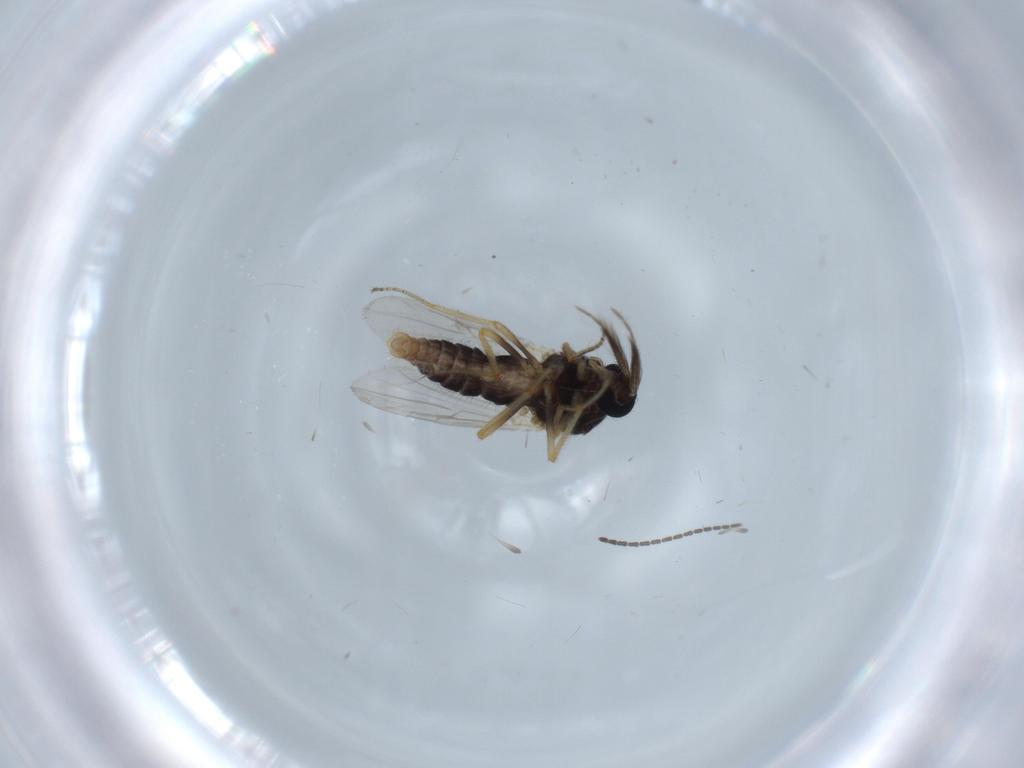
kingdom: Animalia
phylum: Arthropoda
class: Insecta
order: Diptera
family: Ceratopogonidae
